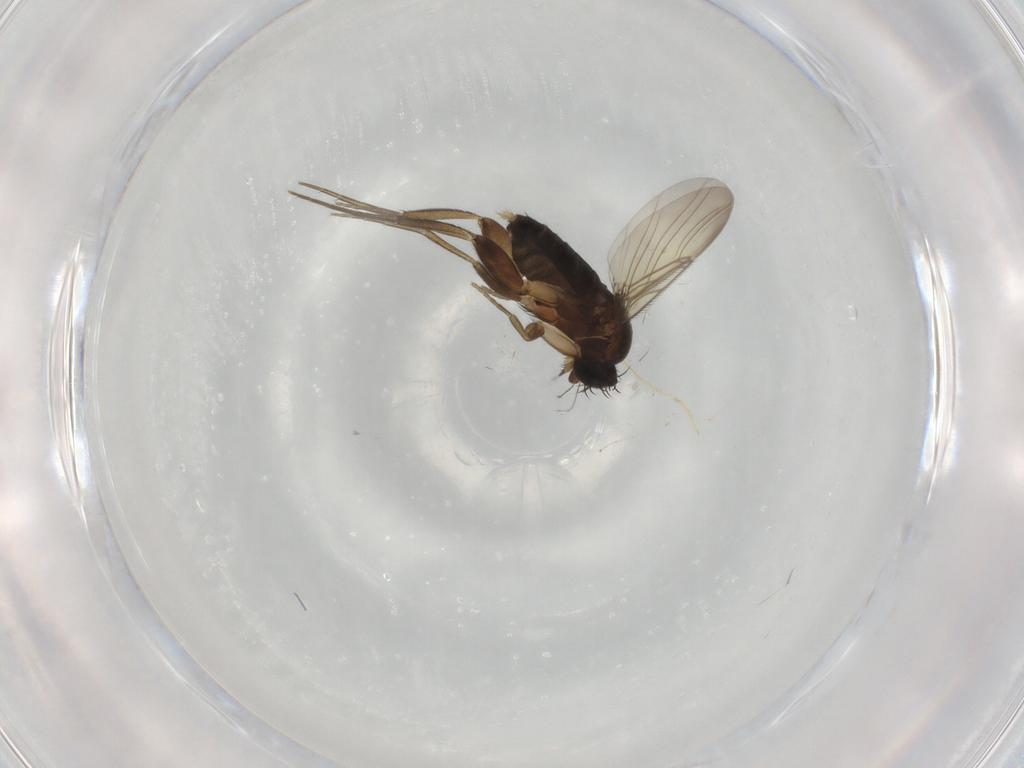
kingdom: Animalia
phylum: Arthropoda
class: Insecta
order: Diptera
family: Phoridae
